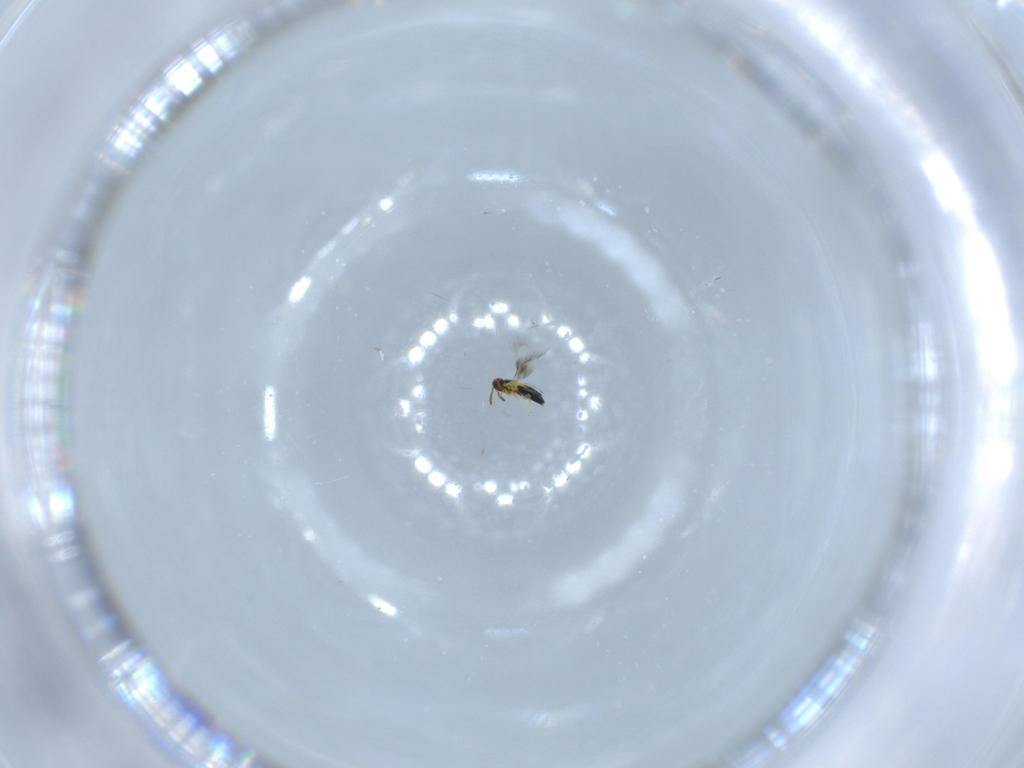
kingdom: Animalia
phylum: Arthropoda
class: Insecta
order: Hymenoptera
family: Signiphoridae
